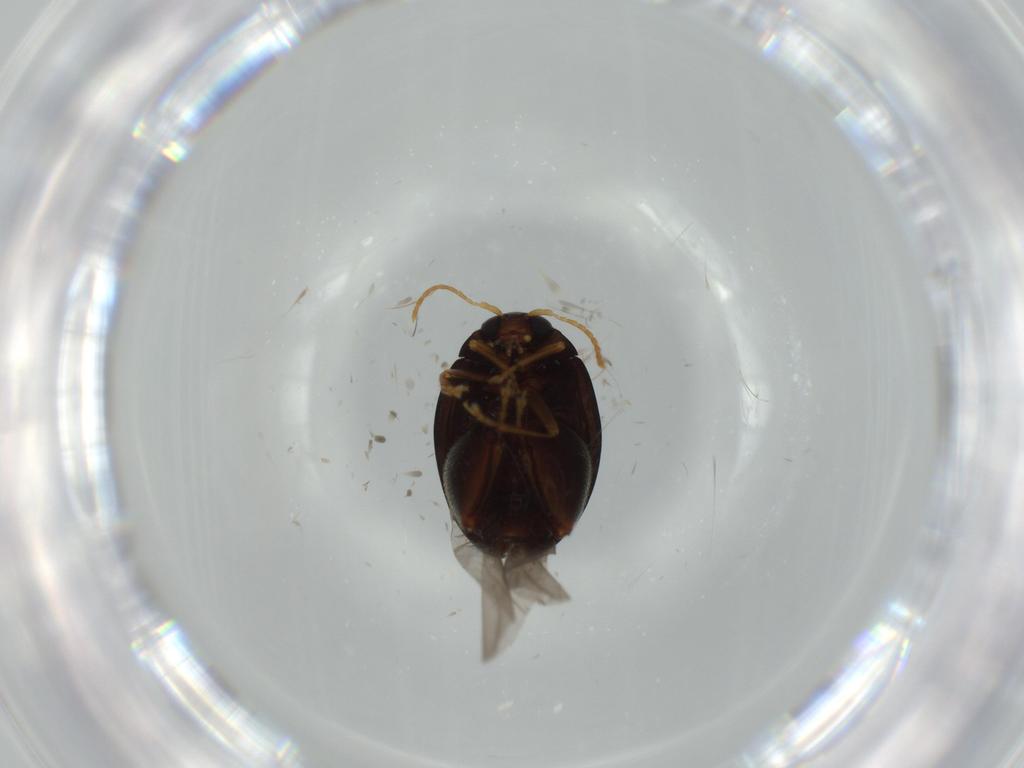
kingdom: Animalia
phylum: Arthropoda
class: Insecta
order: Coleoptera
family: Chrysomelidae
